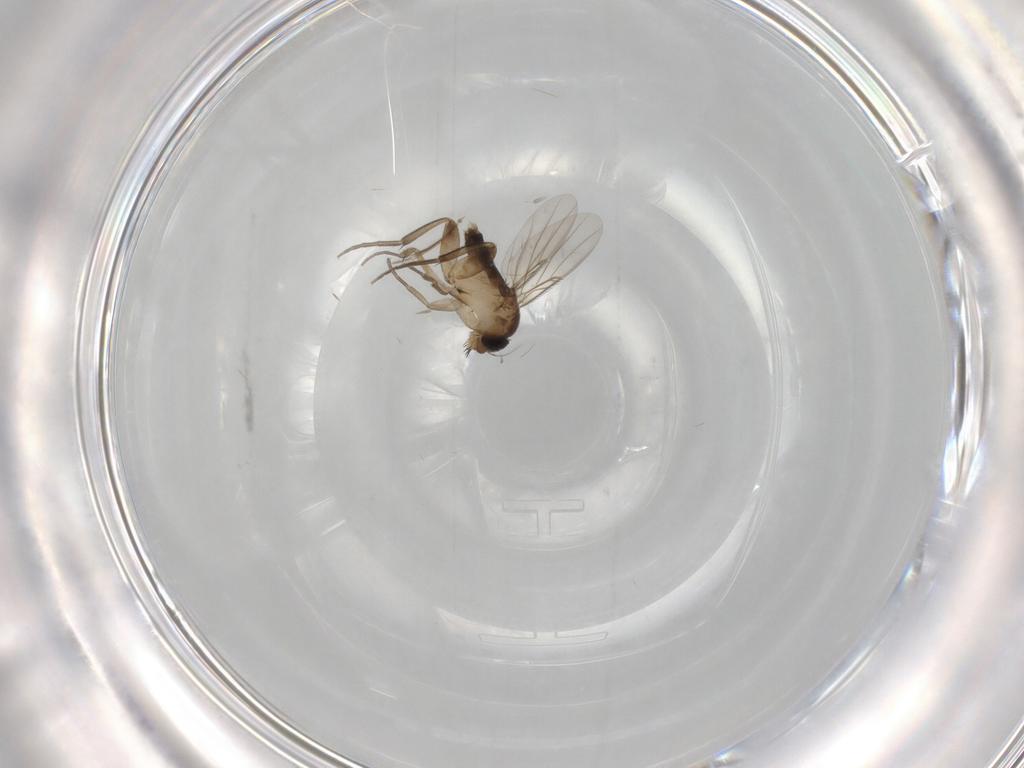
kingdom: Animalia
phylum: Arthropoda
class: Insecta
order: Diptera
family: Phoridae
